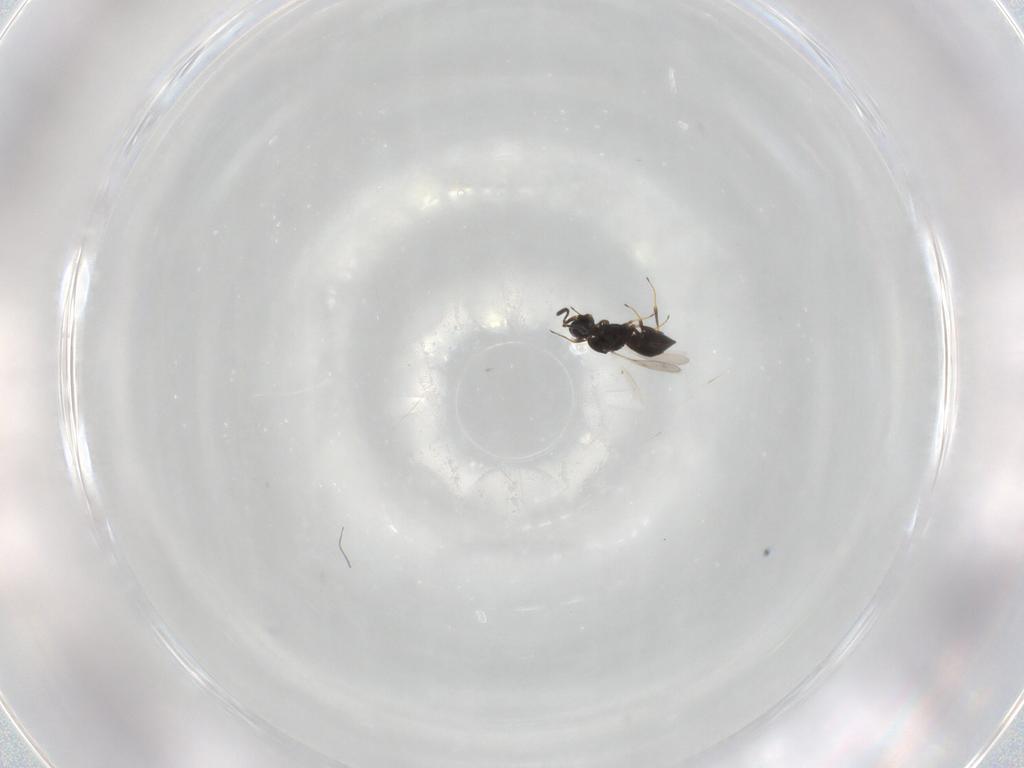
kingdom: Animalia
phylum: Arthropoda
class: Insecta
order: Hymenoptera
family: Scelionidae
